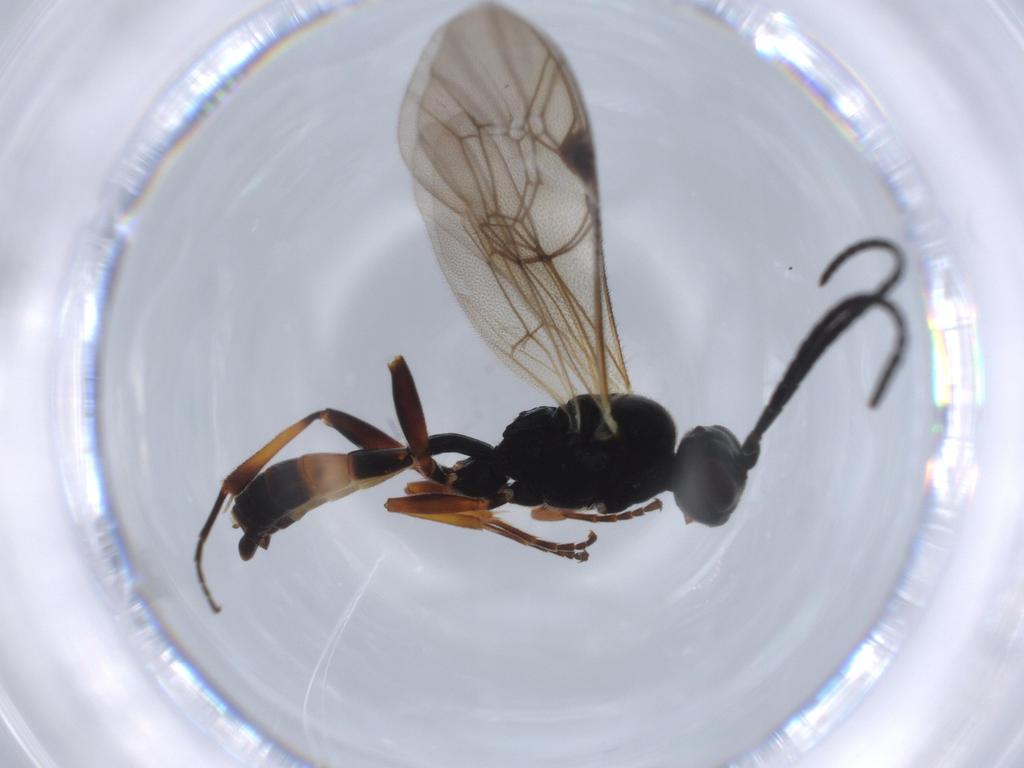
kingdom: Animalia
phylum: Arthropoda
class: Insecta
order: Hymenoptera
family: Ichneumonidae
